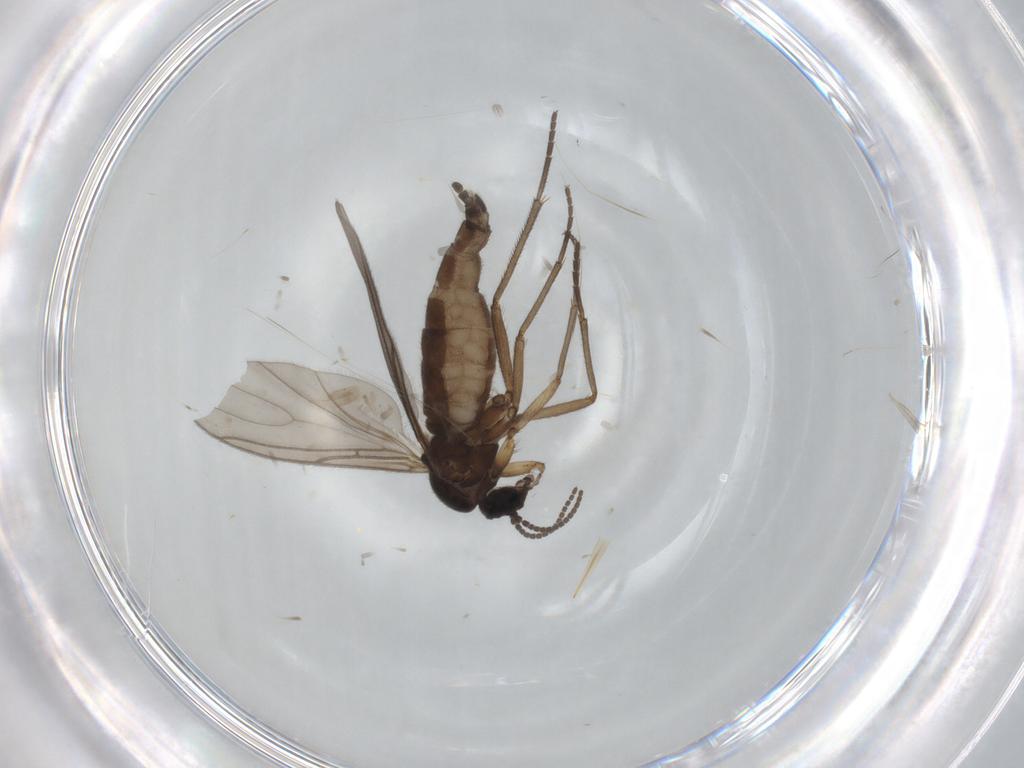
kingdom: Animalia
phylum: Arthropoda
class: Insecta
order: Diptera
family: Sciaridae
